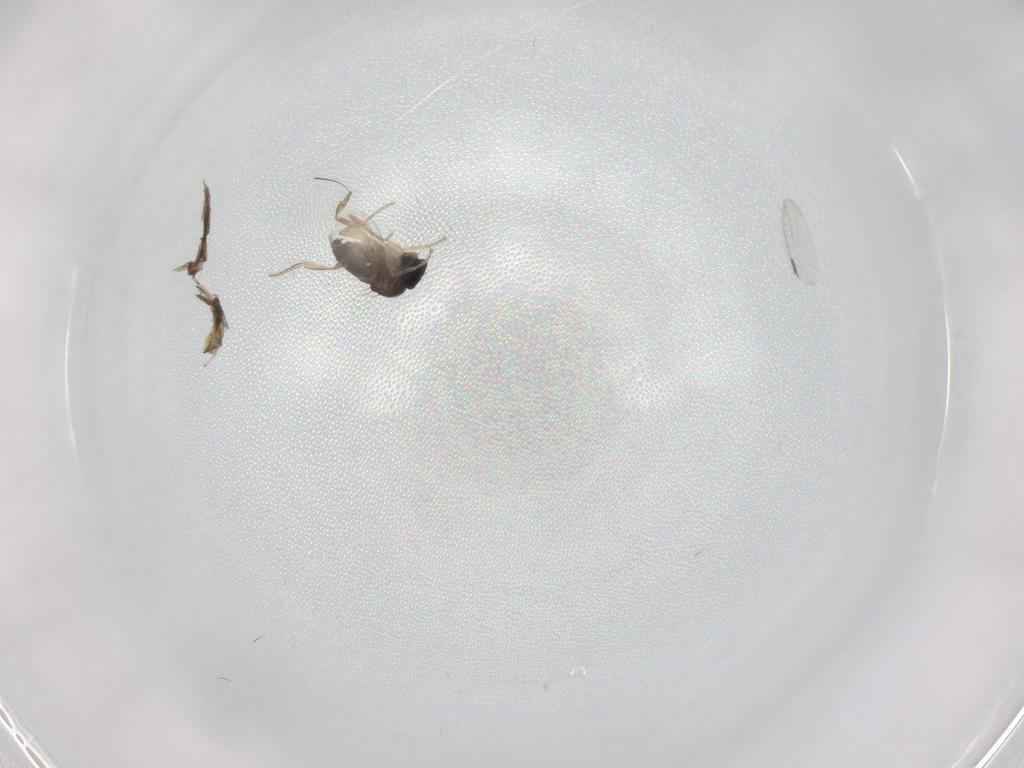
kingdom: Animalia
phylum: Arthropoda
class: Insecta
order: Diptera
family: Phoridae
